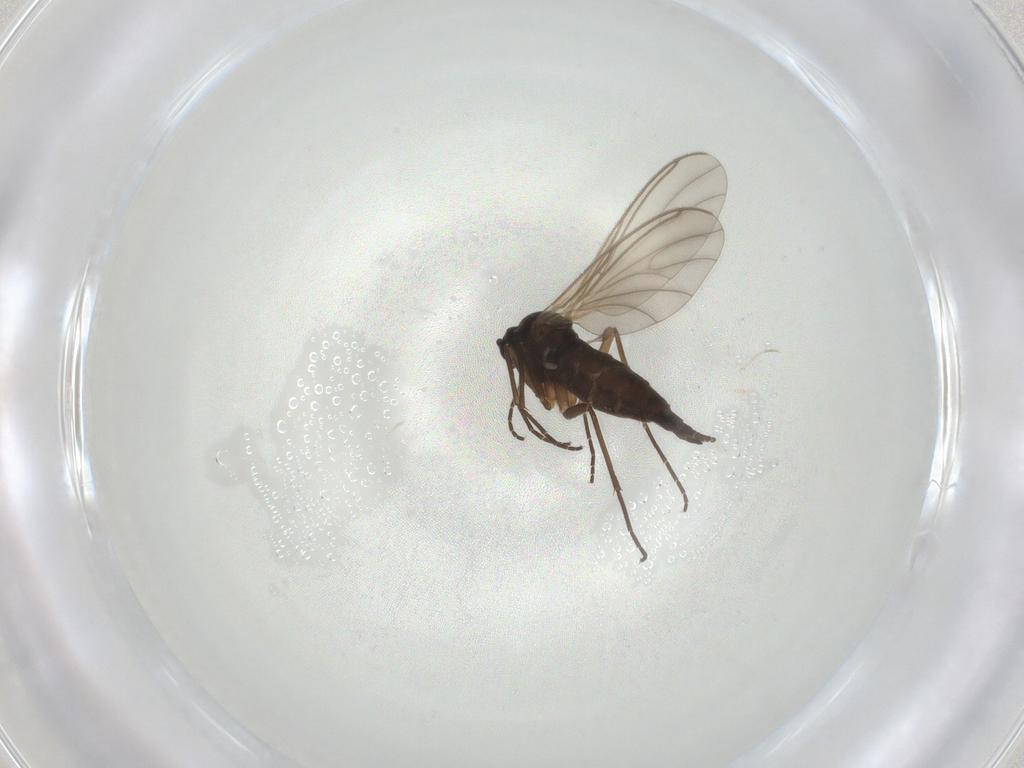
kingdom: Animalia
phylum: Arthropoda
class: Insecta
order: Diptera
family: Sciaridae
